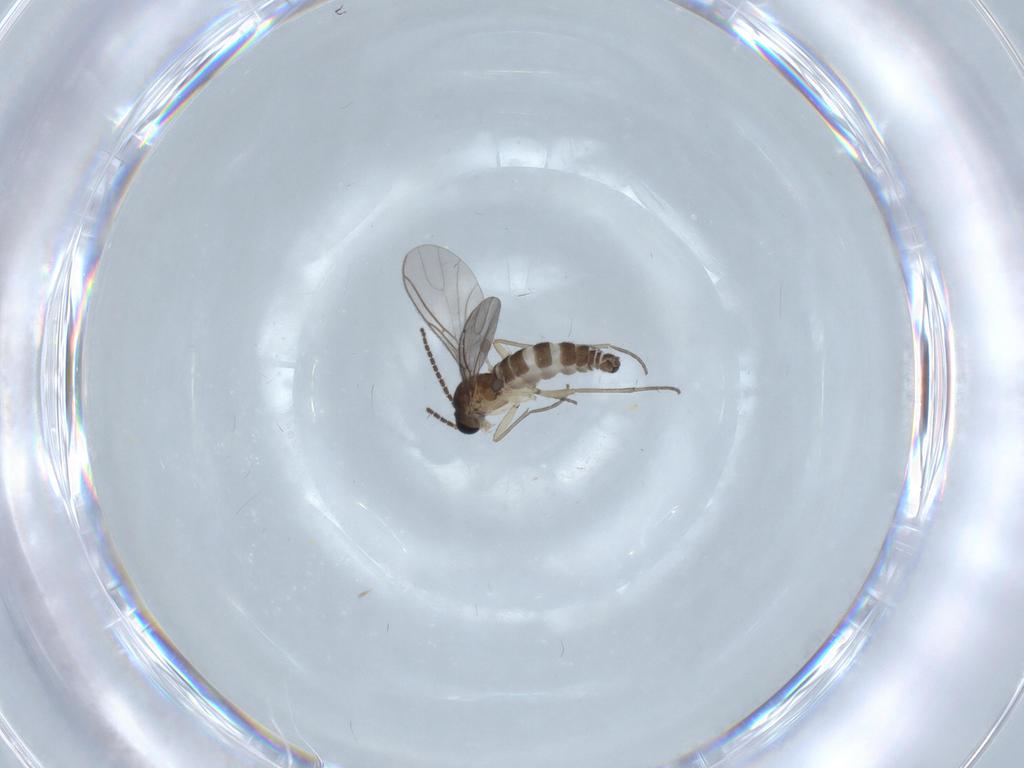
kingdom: Animalia
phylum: Arthropoda
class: Insecta
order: Diptera
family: Sciaridae
